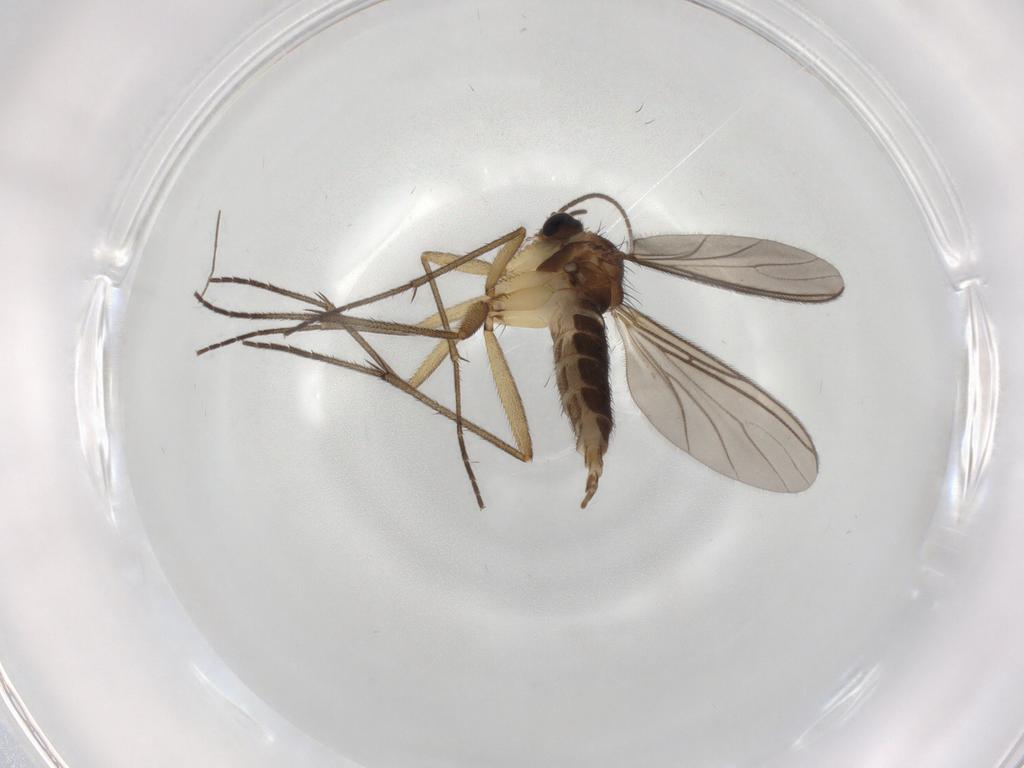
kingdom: Animalia
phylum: Arthropoda
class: Insecta
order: Diptera
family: Sciaridae
